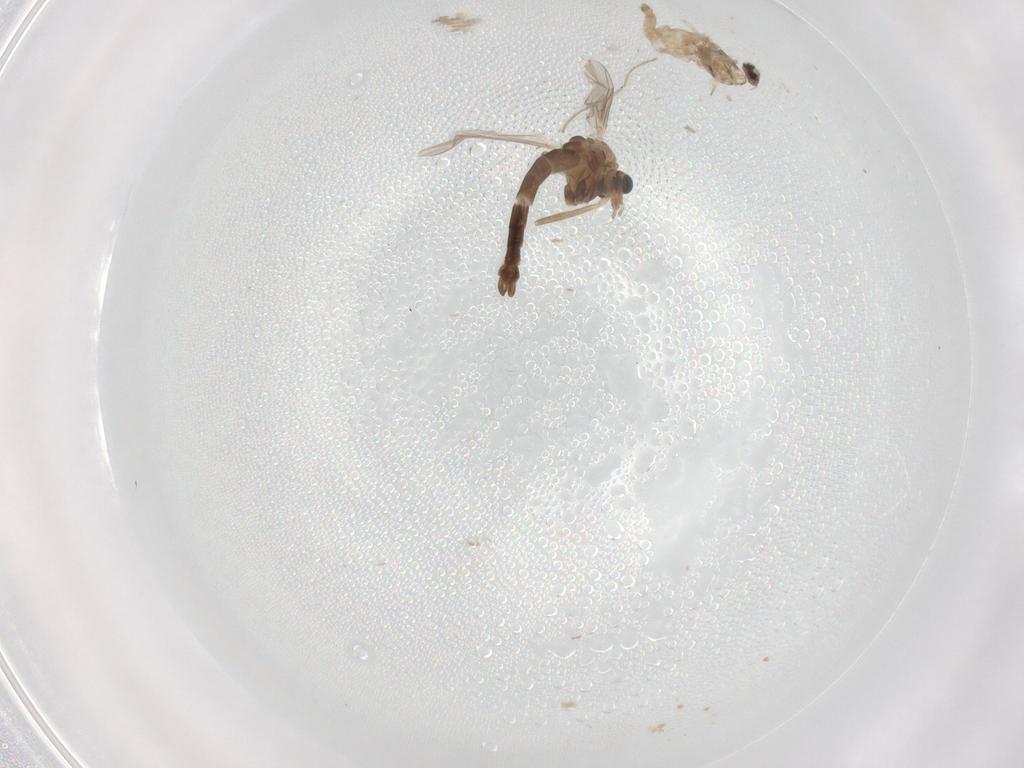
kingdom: Animalia
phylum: Arthropoda
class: Insecta
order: Diptera
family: Chironomidae
